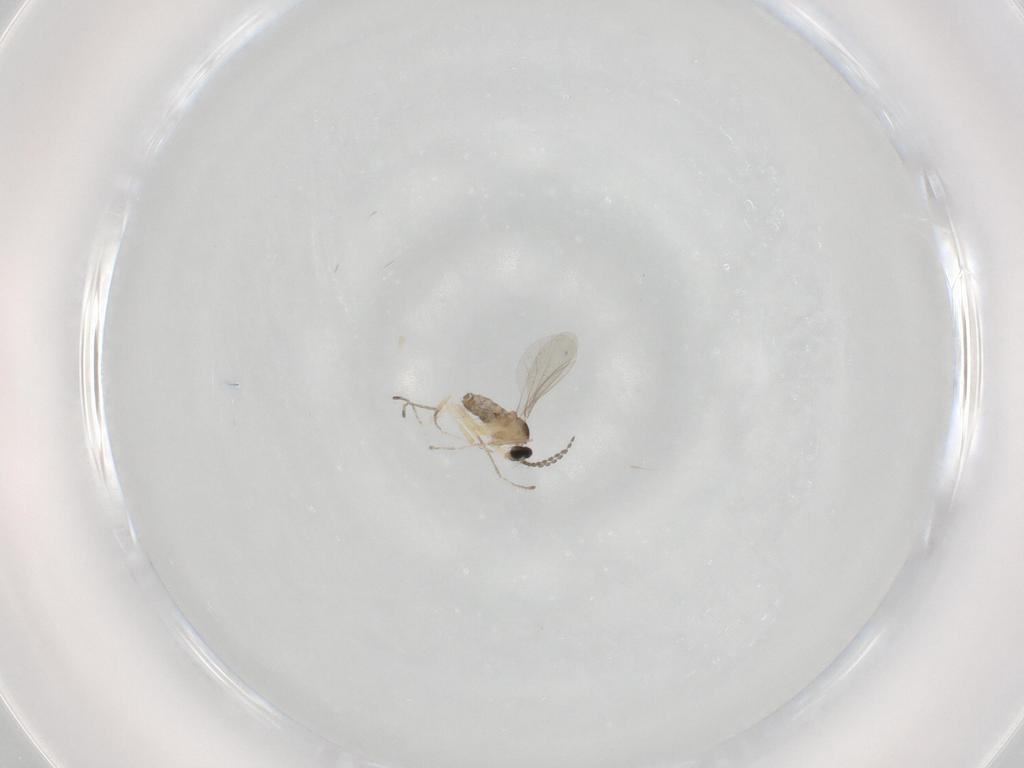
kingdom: Animalia
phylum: Arthropoda
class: Insecta
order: Diptera
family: Cecidomyiidae
